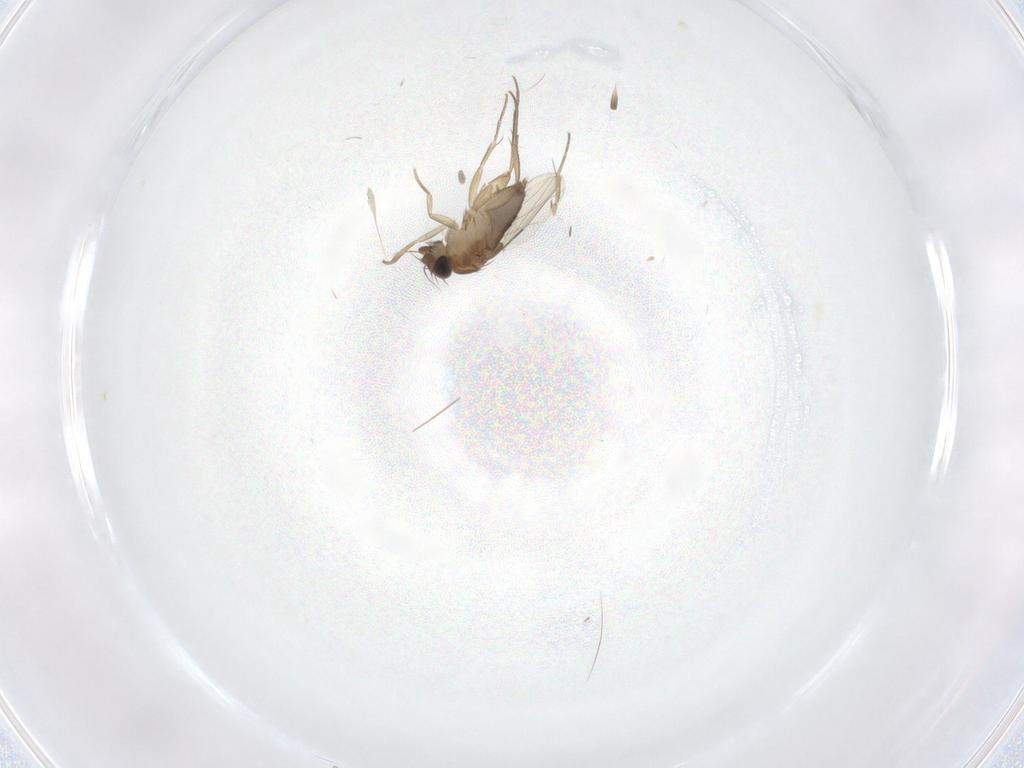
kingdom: Animalia
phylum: Arthropoda
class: Insecta
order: Diptera
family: Phoridae
